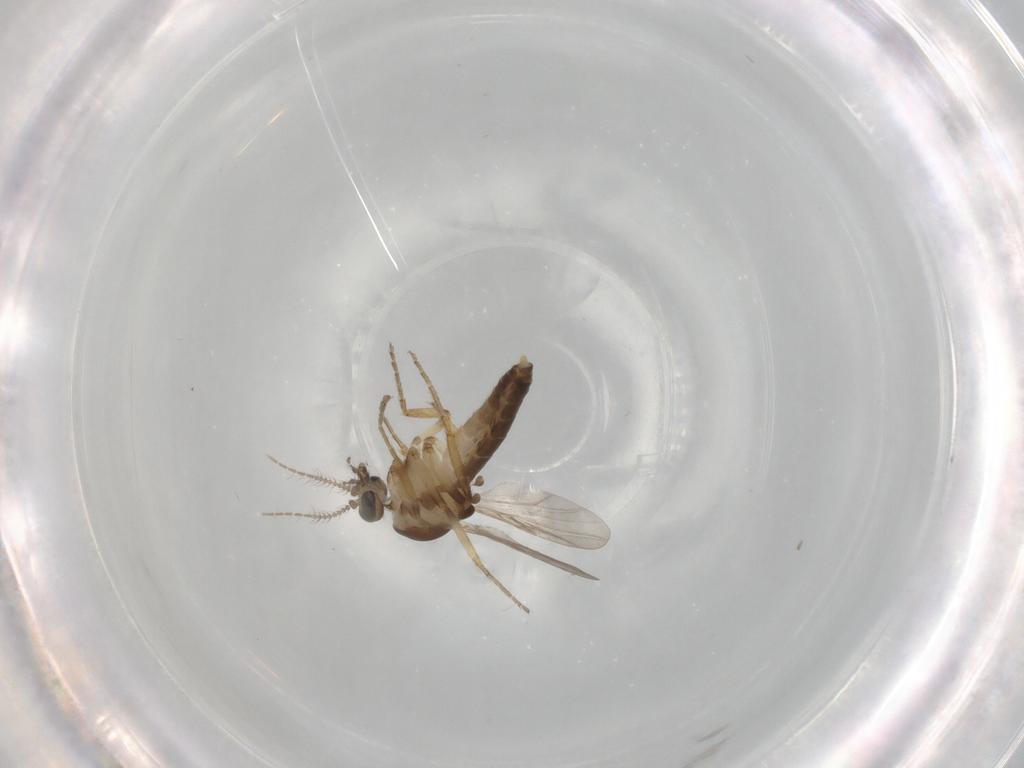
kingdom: Animalia
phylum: Arthropoda
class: Insecta
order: Diptera
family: Ceratopogonidae
